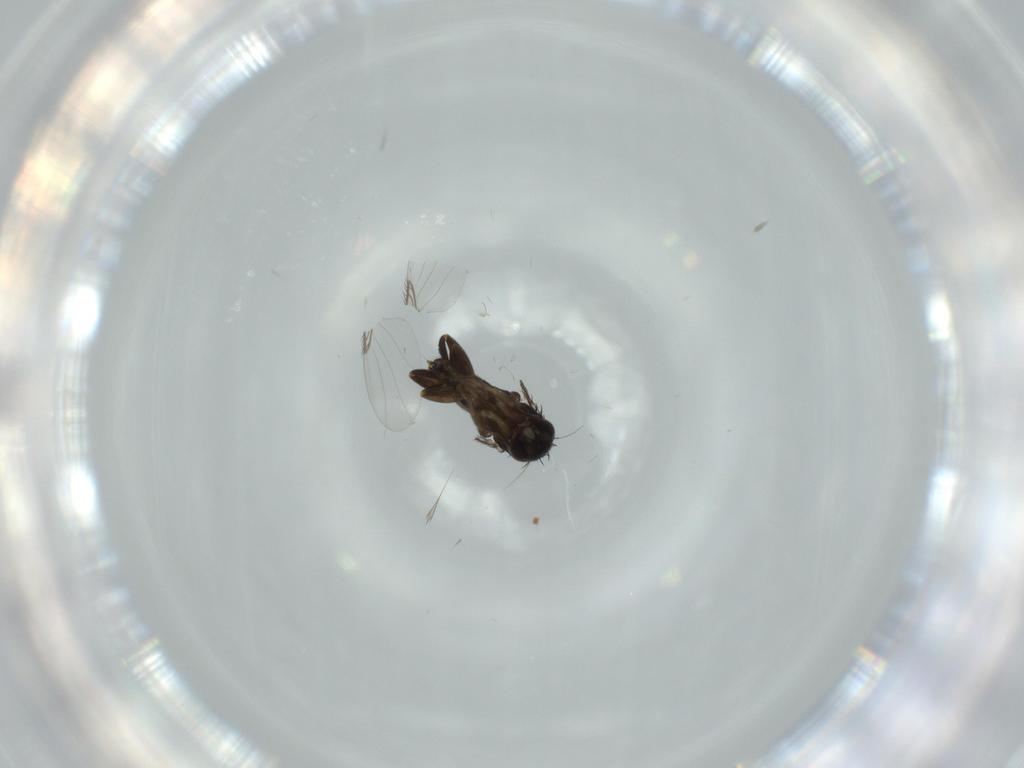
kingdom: Animalia
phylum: Arthropoda
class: Insecta
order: Diptera
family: Phoridae
